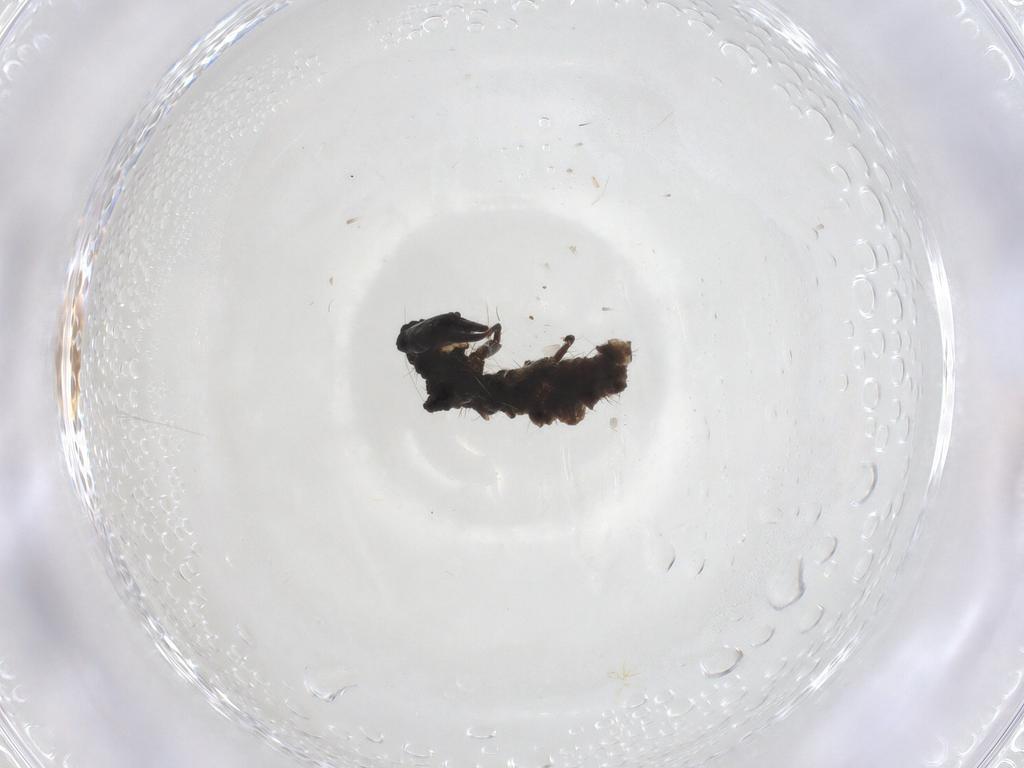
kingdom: Animalia
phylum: Arthropoda
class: Insecta
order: Neuroptera
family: Hemerobiidae
